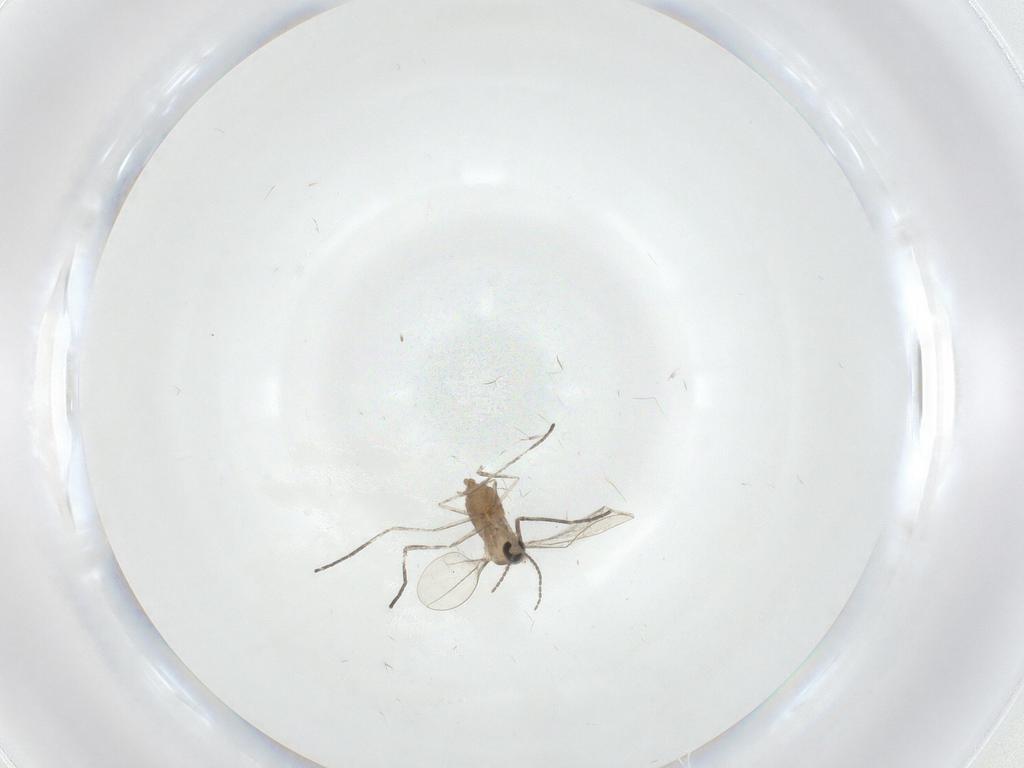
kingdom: Animalia
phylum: Arthropoda
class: Insecta
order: Diptera
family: Cecidomyiidae
